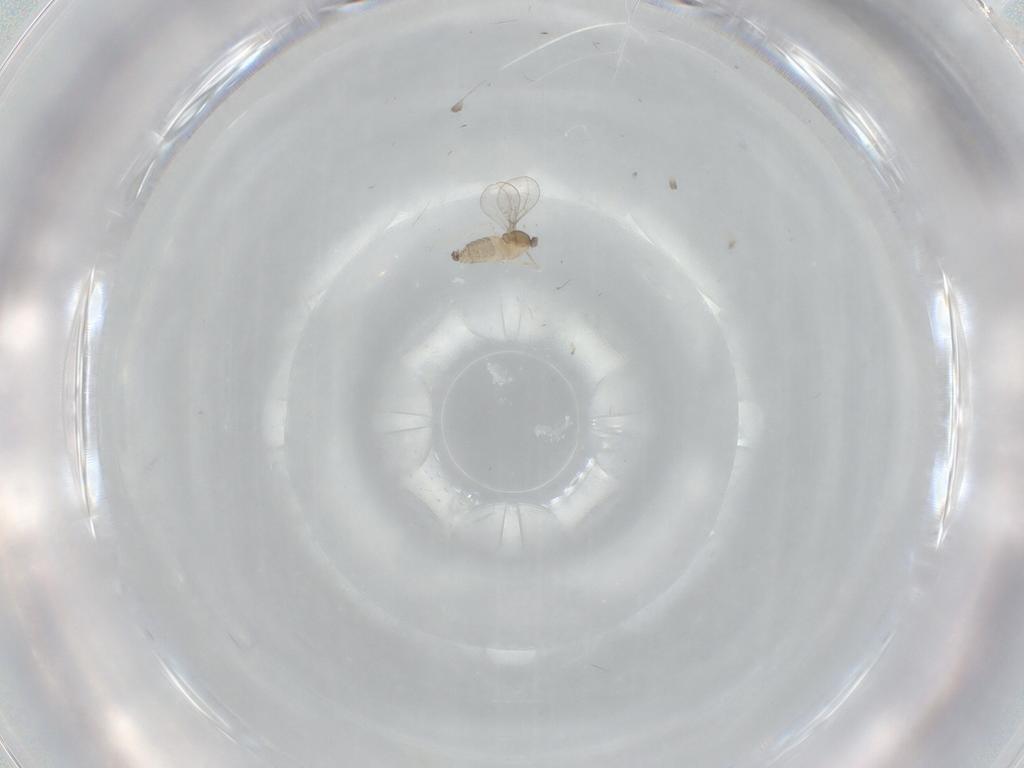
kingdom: Animalia
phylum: Arthropoda
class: Insecta
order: Diptera
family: Cecidomyiidae
